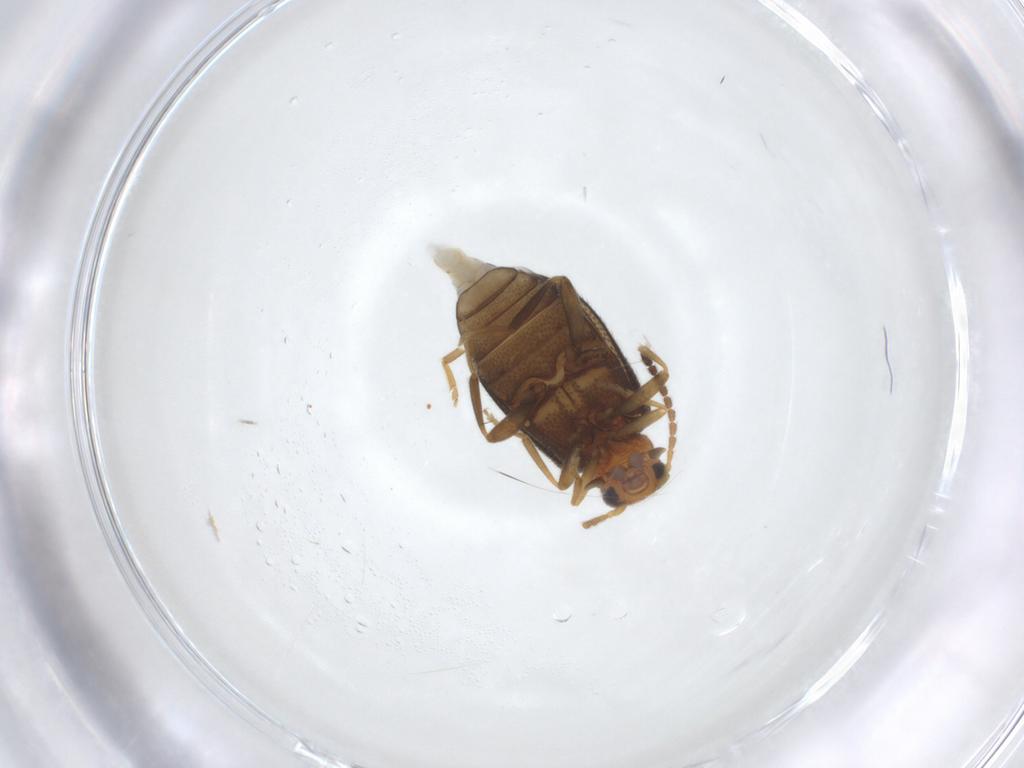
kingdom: Animalia
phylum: Arthropoda
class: Insecta
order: Coleoptera
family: Aderidae
